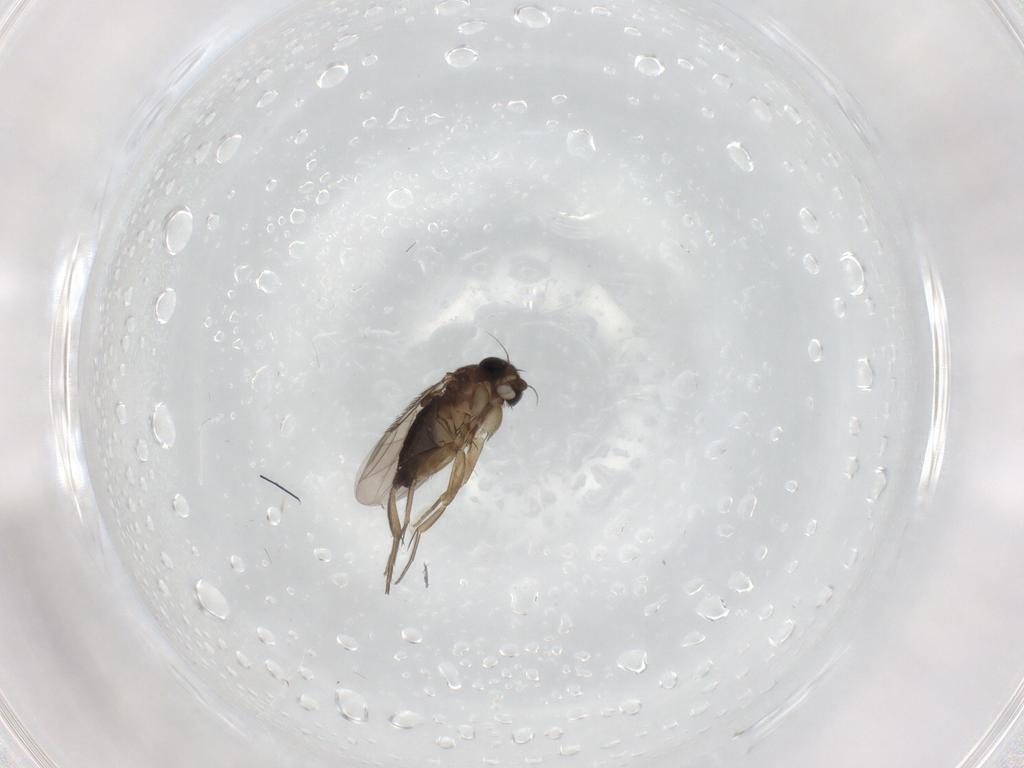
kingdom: Animalia
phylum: Arthropoda
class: Insecta
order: Diptera
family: Phoridae
